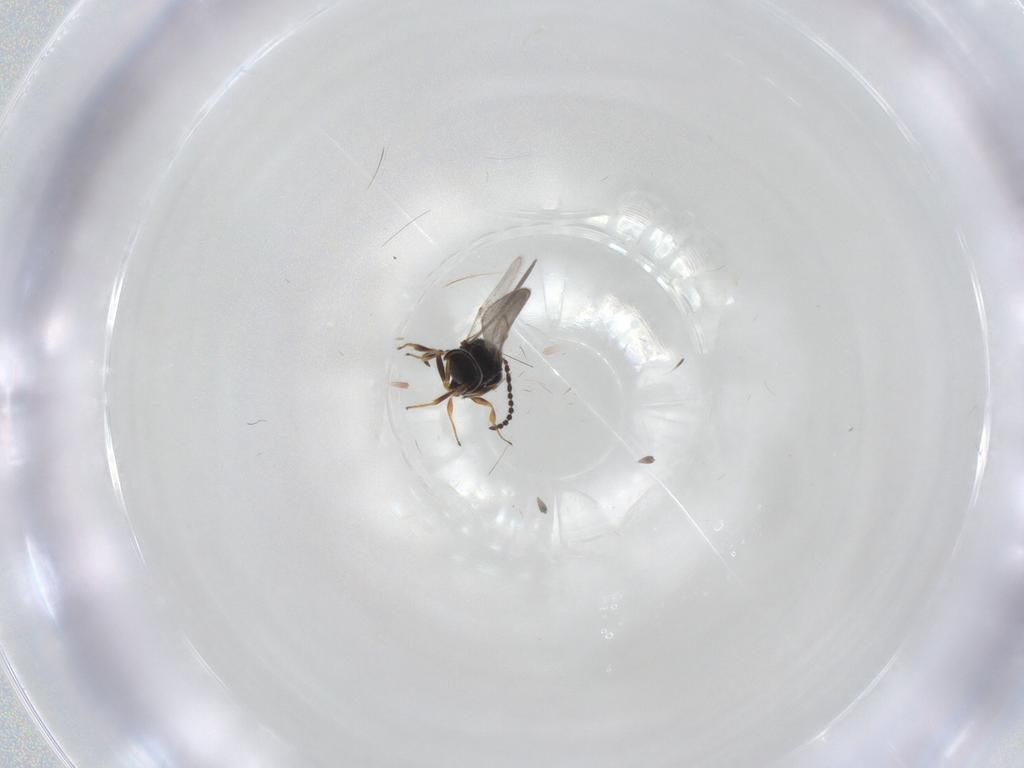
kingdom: Animalia
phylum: Arthropoda
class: Insecta
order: Hymenoptera
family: Scelionidae
